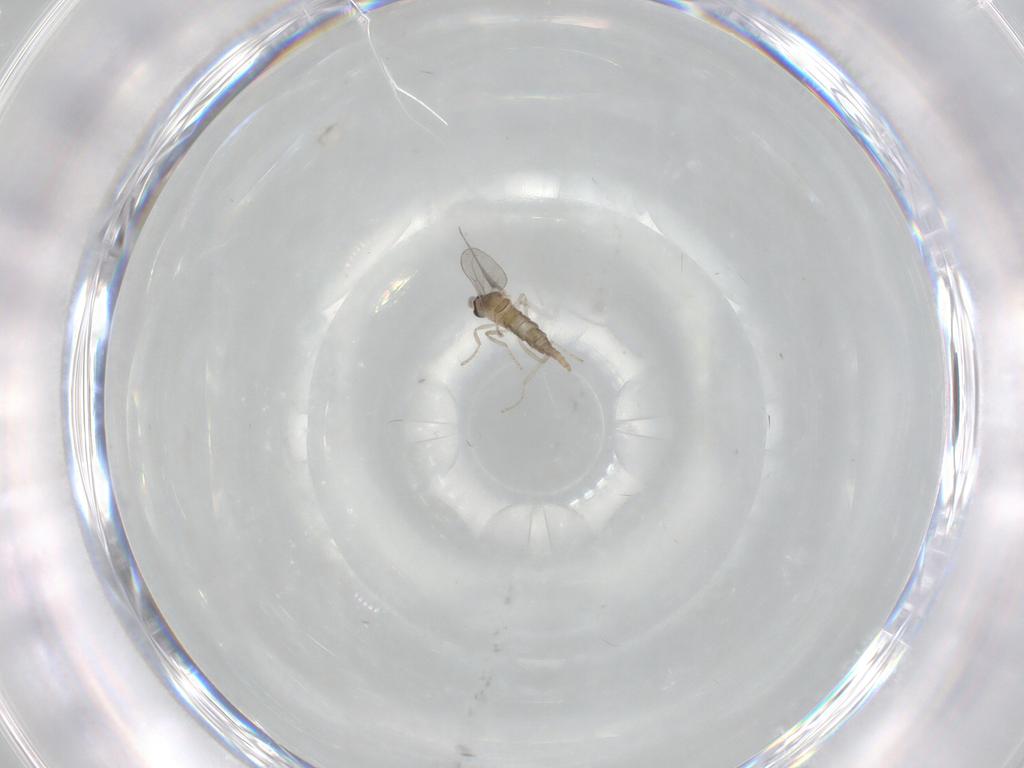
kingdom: Animalia
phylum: Arthropoda
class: Insecta
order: Diptera
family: Cecidomyiidae
